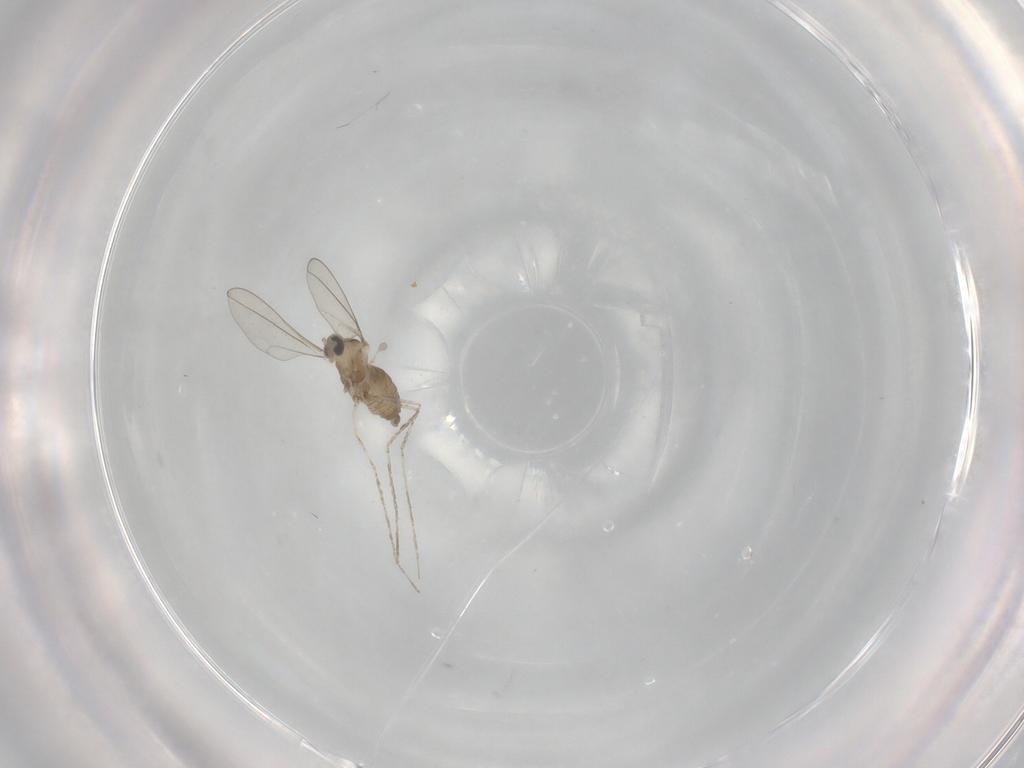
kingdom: Animalia
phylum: Arthropoda
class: Insecta
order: Diptera
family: Cecidomyiidae
